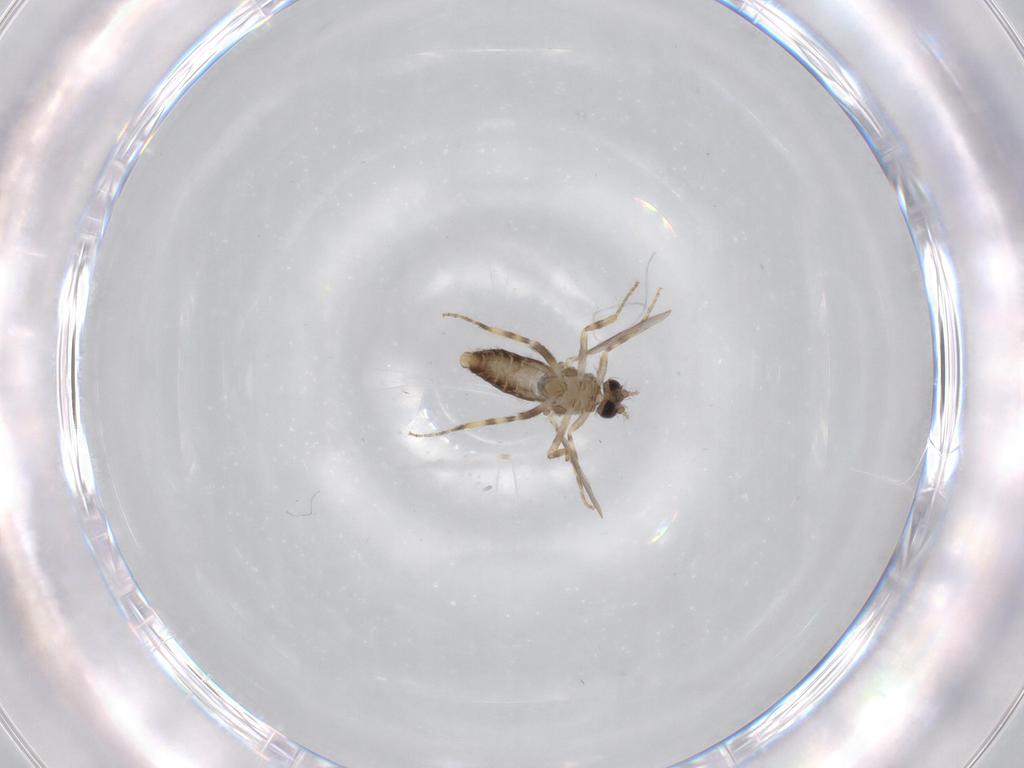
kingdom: Animalia
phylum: Arthropoda
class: Insecta
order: Diptera
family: Ceratopogonidae
